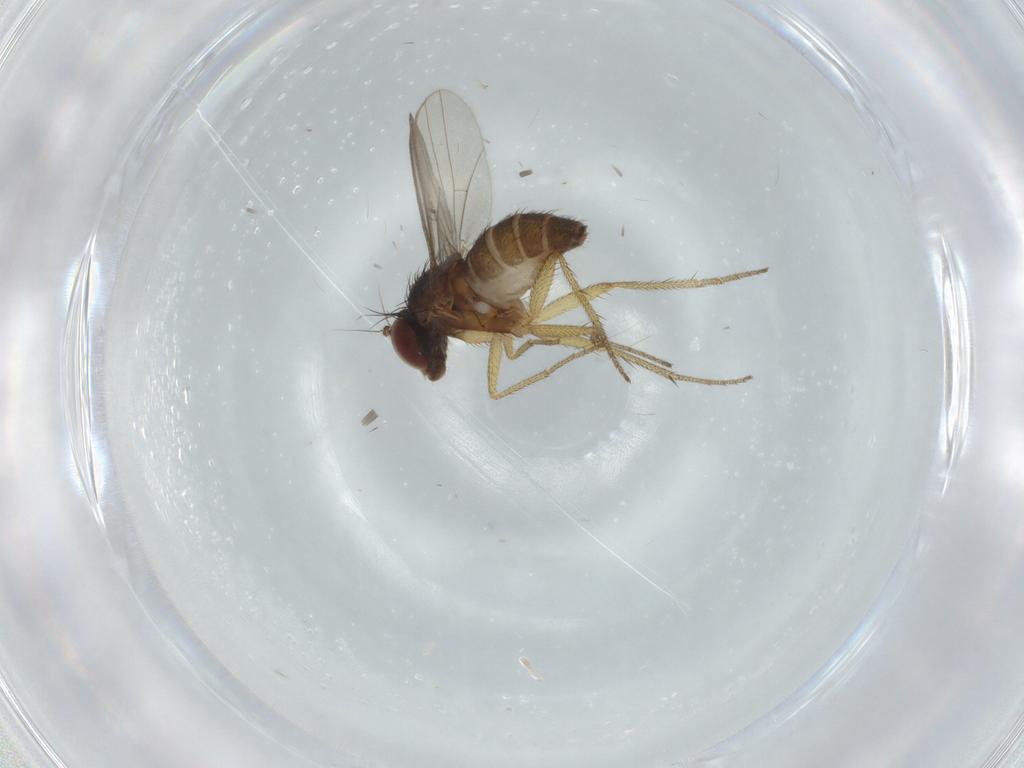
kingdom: Animalia
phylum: Arthropoda
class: Insecta
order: Diptera
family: Dolichopodidae
